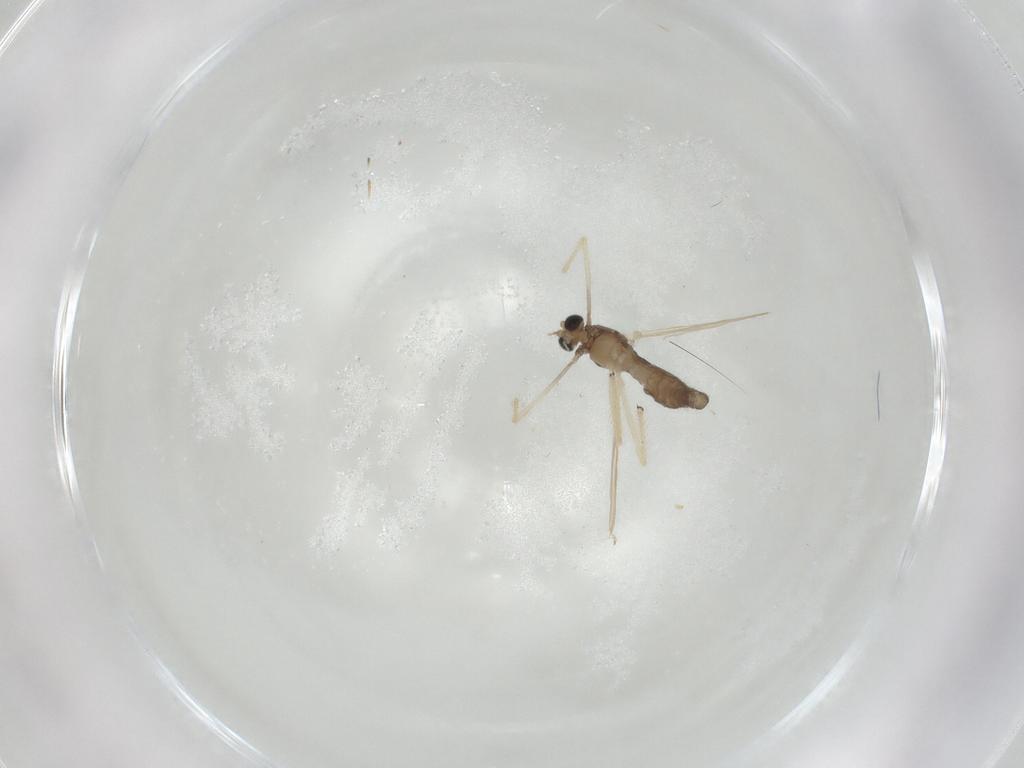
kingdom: Animalia
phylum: Arthropoda
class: Insecta
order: Diptera
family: Chironomidae
